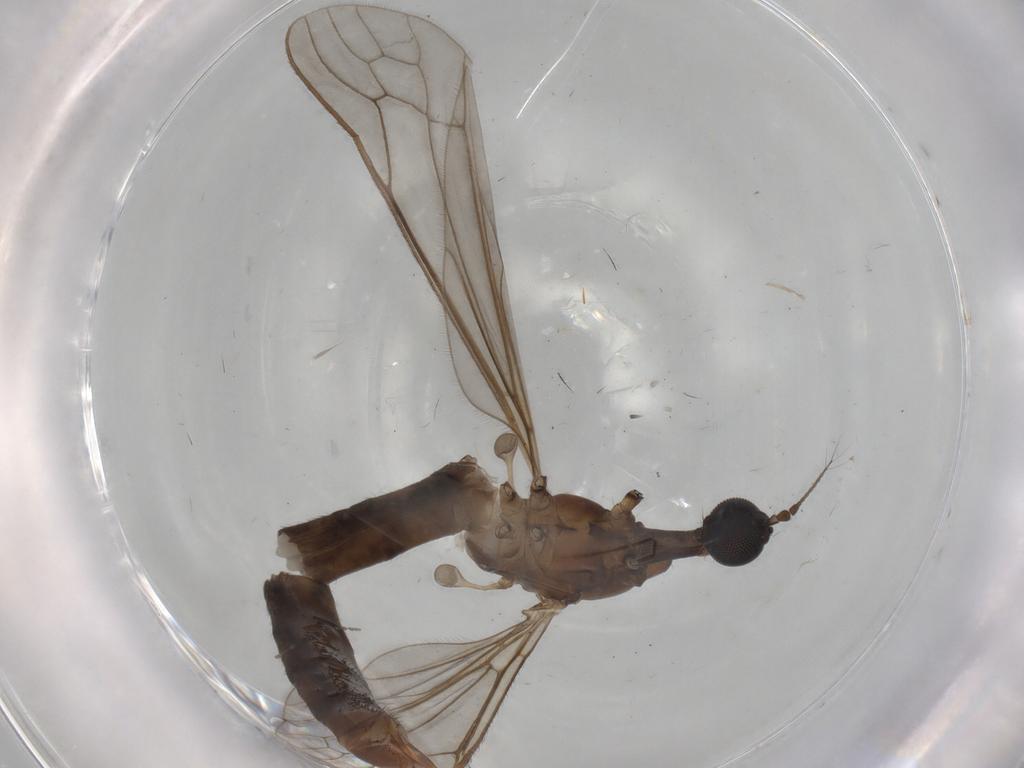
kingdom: Animalia
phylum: Arthropoda
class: Insecta
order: Diptera
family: Limoniidae
